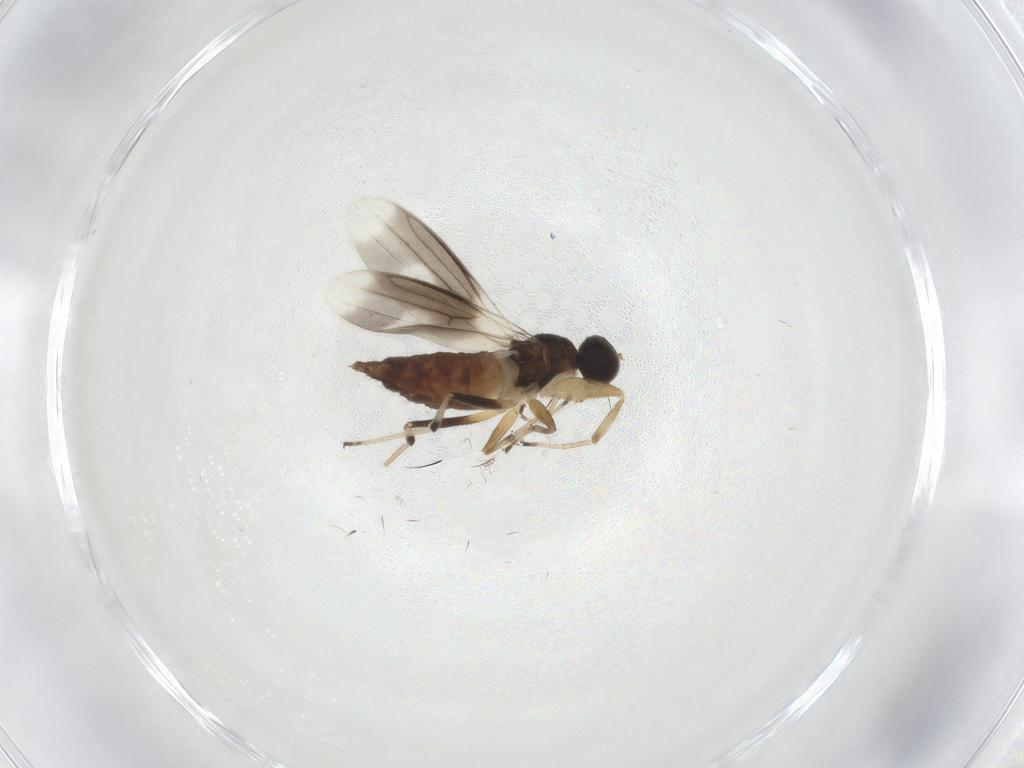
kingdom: Animalia
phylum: Arthropoda
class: Insecta
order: Diptera
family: Hybotidae
